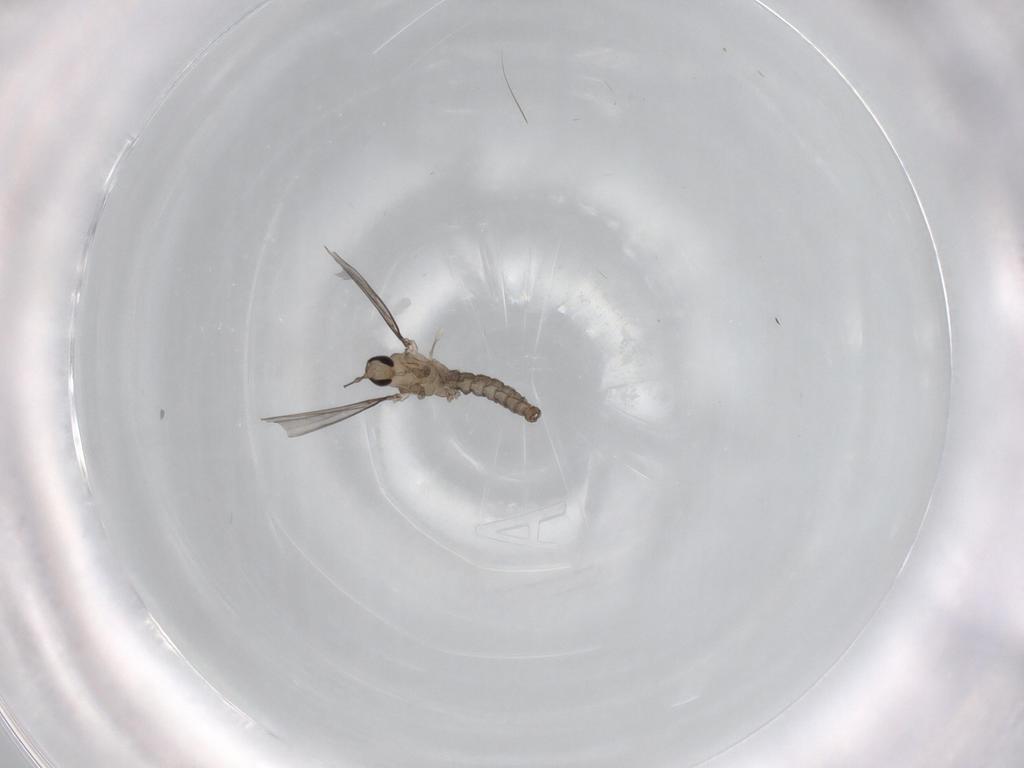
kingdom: Animalia
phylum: Arthropoda
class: Insecta
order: Diptera
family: Cecidomyiidae
